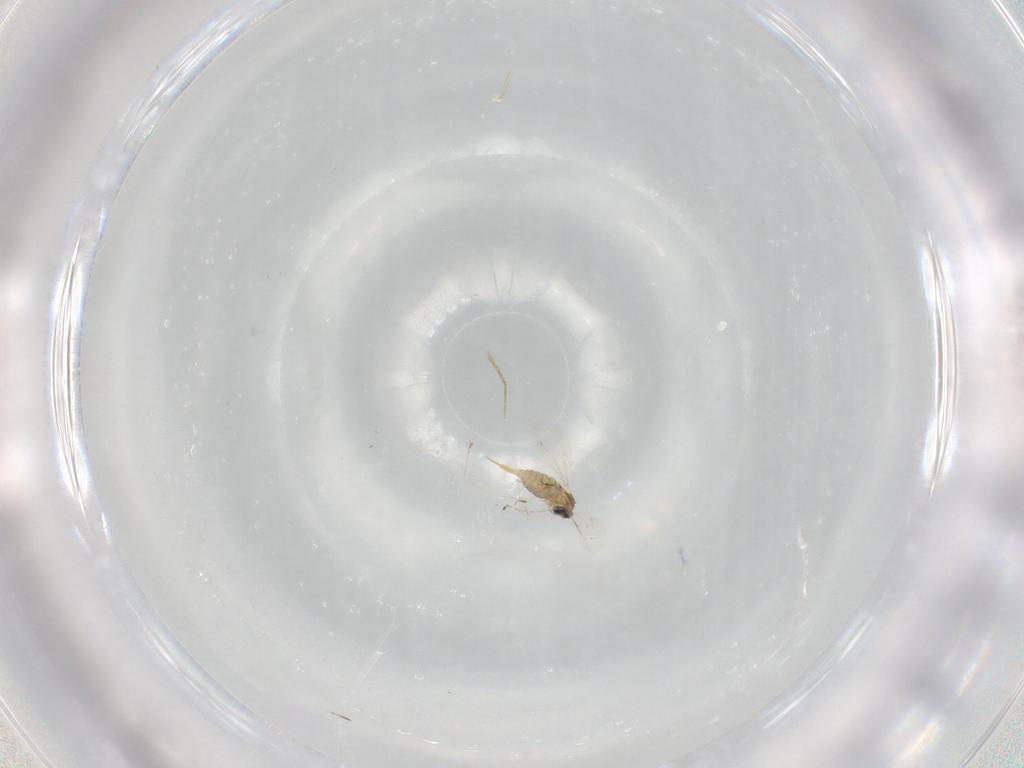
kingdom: Animalia
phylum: Arthropoda
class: Insecta
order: Diptera
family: Cecidomyiidae
